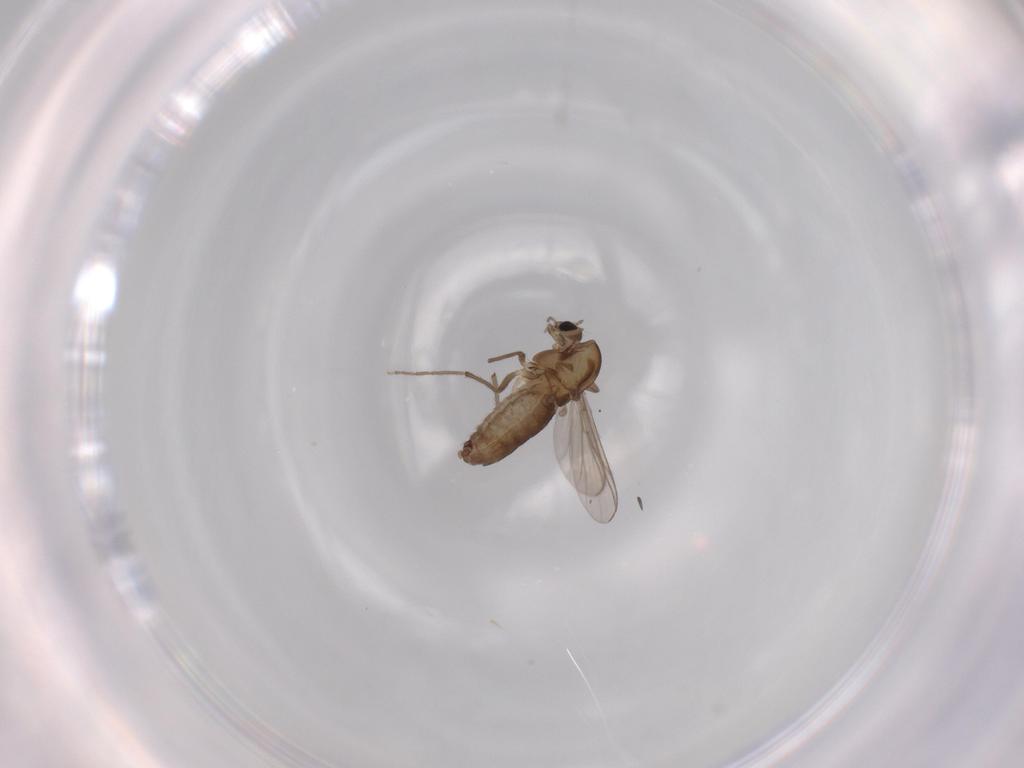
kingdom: Animalia
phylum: Arthropoda
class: Insecta
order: Diptera
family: Chironomidae
